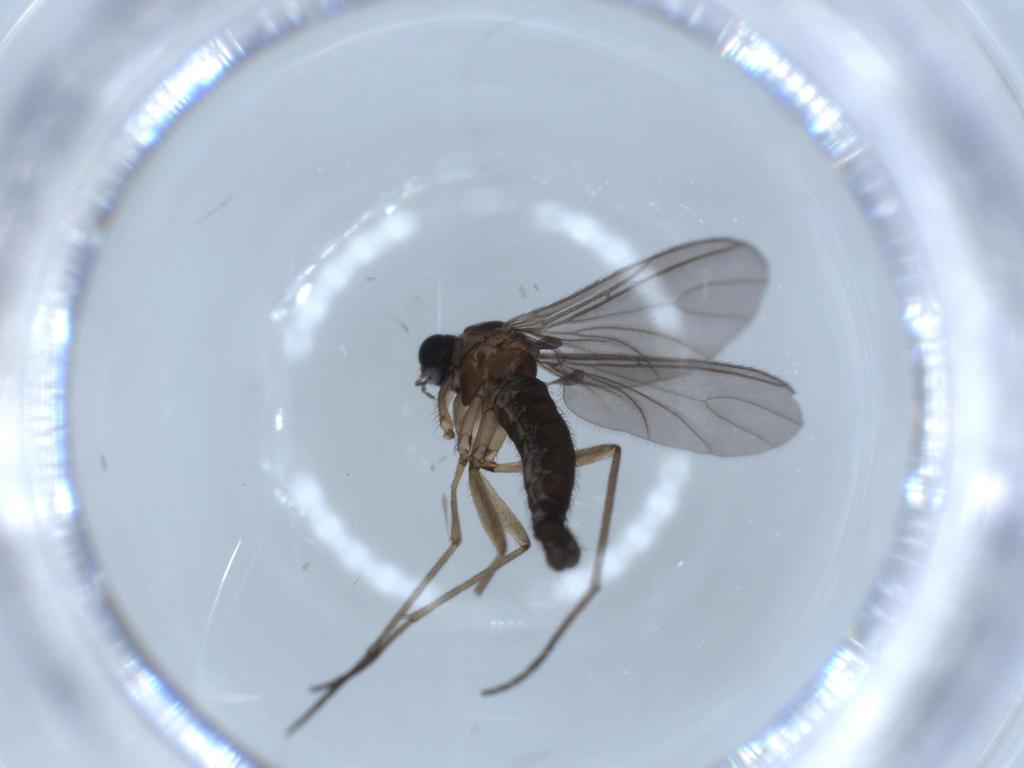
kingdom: Animalia
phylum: Arthropoda
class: Insecta
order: Diptera
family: Sciaridae
